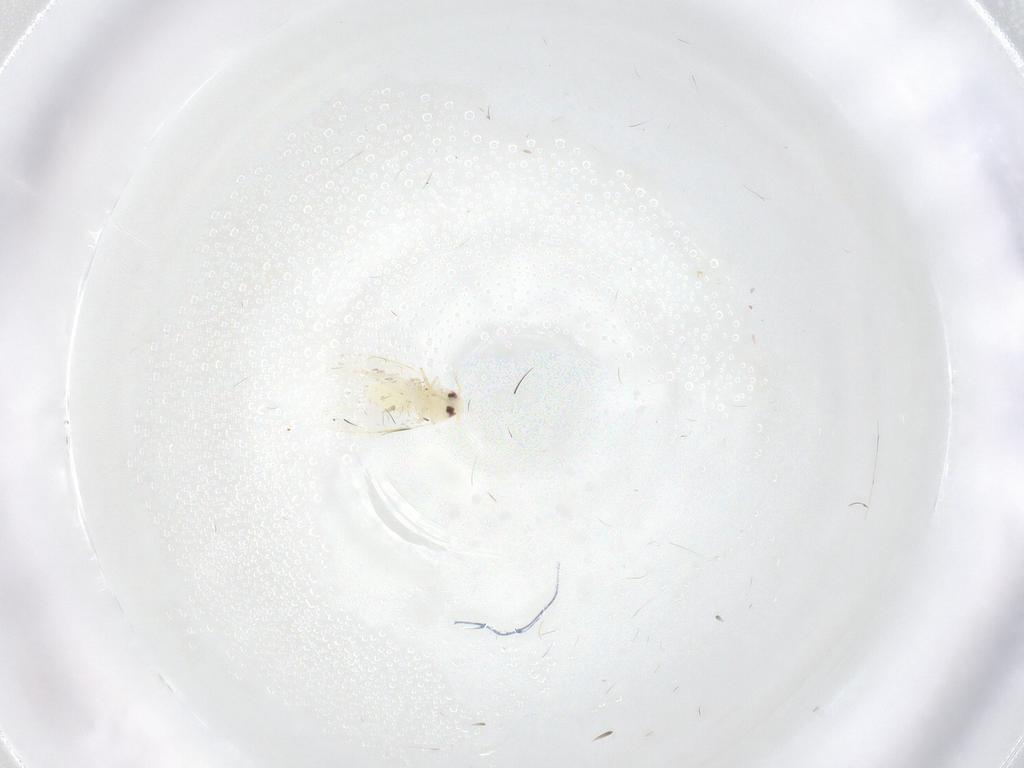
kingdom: Animalia
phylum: Arthropoda
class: Insecta
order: Hemiptera
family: Aleyrodidae
